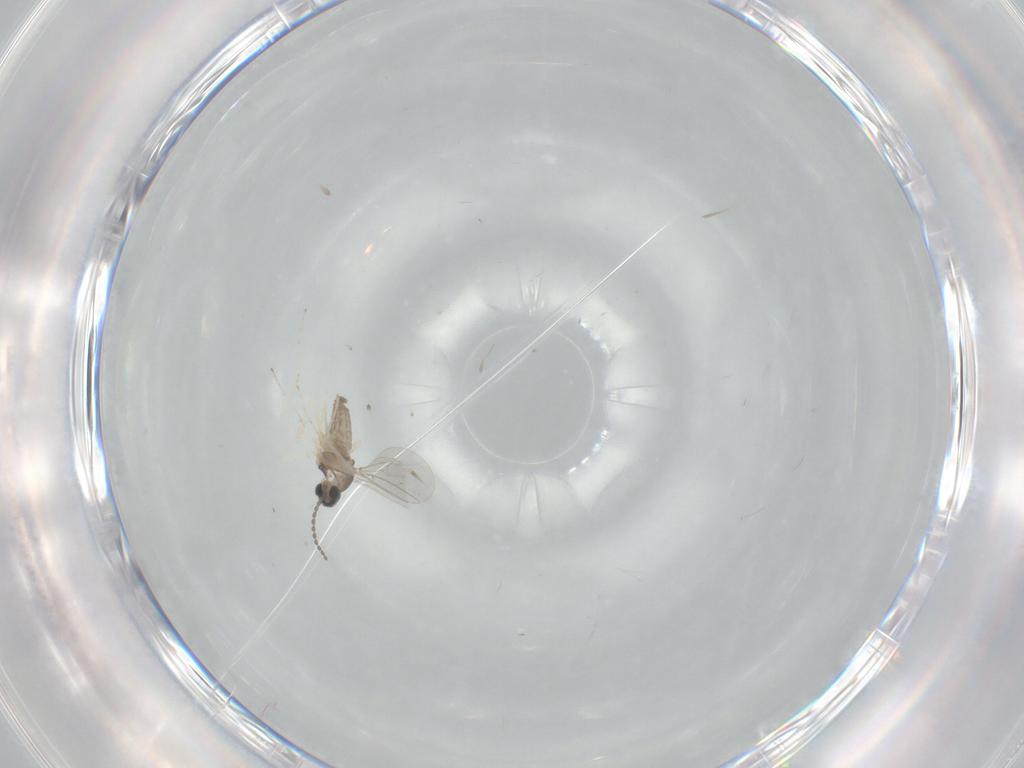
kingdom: Animalia
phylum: Arthropoda
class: Insecta
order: Diptera
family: Cecidomyiidae
